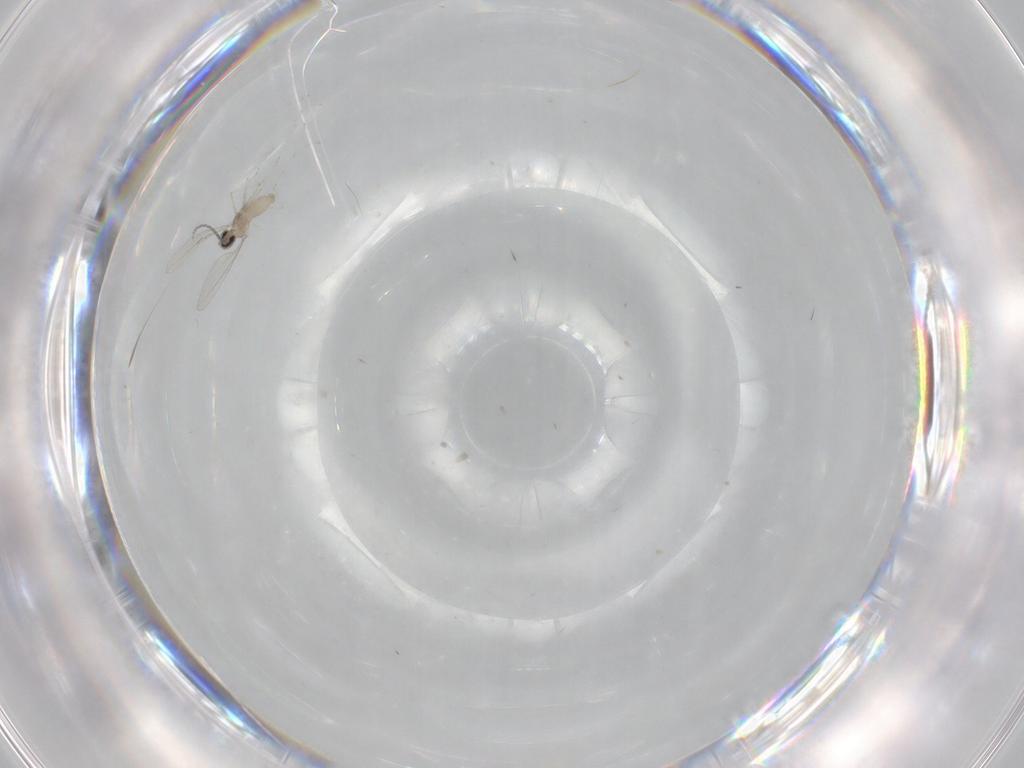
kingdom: Animalia
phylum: Arthropoda
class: Insecta
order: Diptera
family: Cecidomyiidae
